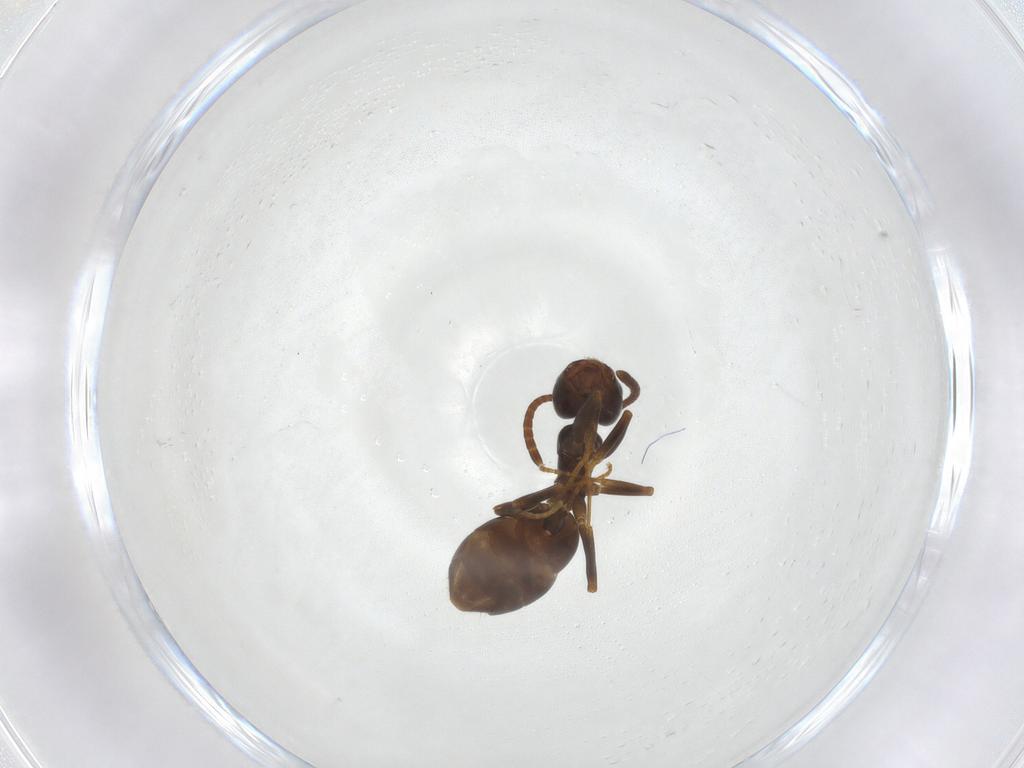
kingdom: Animalia
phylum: Arthropoda
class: Insecta
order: Hymenoptera
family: Formicidae
